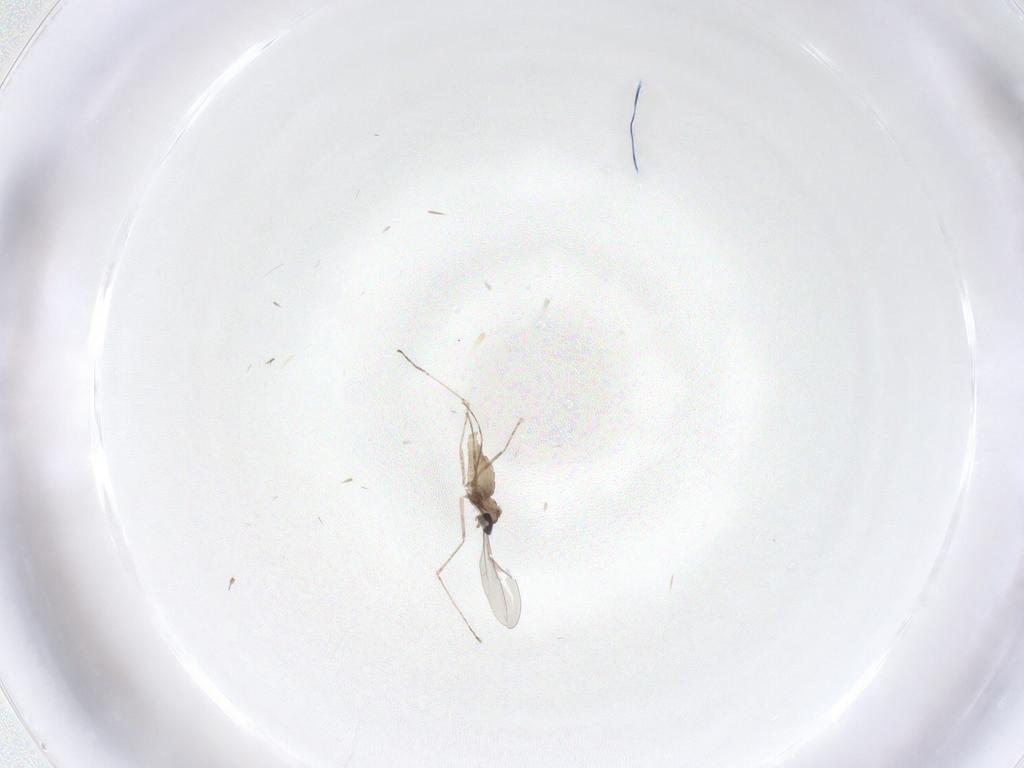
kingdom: Animalia
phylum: Arthropoda
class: Insecta
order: Diptera
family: Cecidomyiidae
